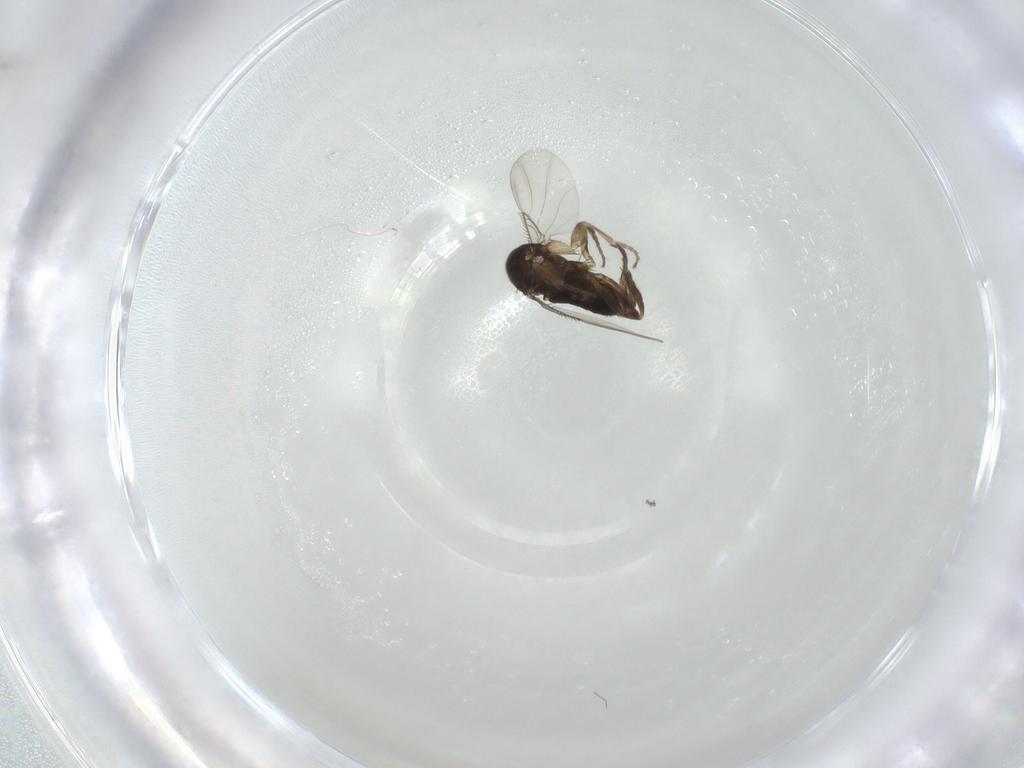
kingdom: Animalia
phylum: Arthropoda
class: Insecta
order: Diptera
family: Phoridae
